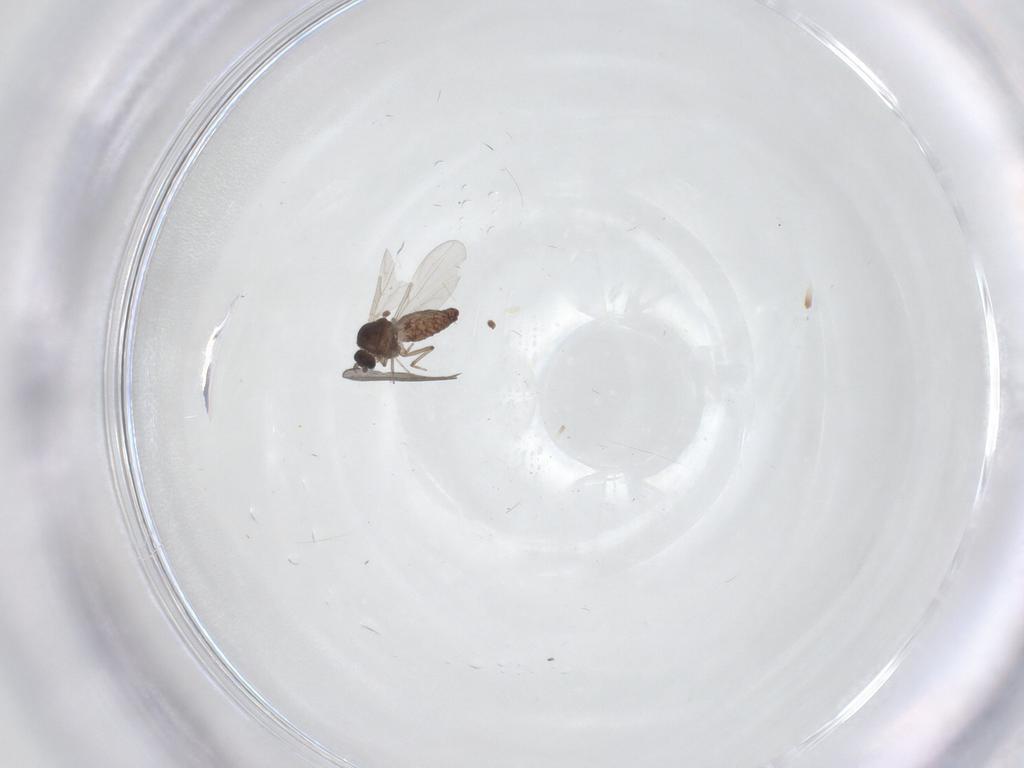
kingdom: Animalia
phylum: Arthropoda
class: Insecta
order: Diptera
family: Ceratopogonidae
